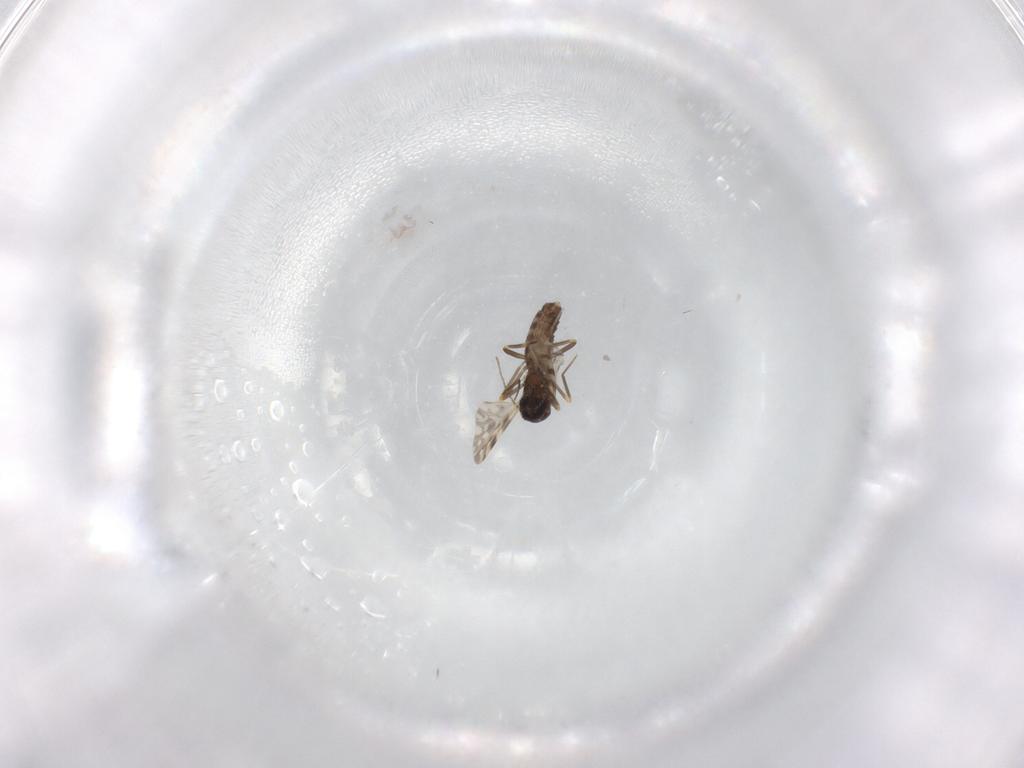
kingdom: Animalia
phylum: Arthropoda
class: Insecta
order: Diptera
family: Ceratopogonidae
